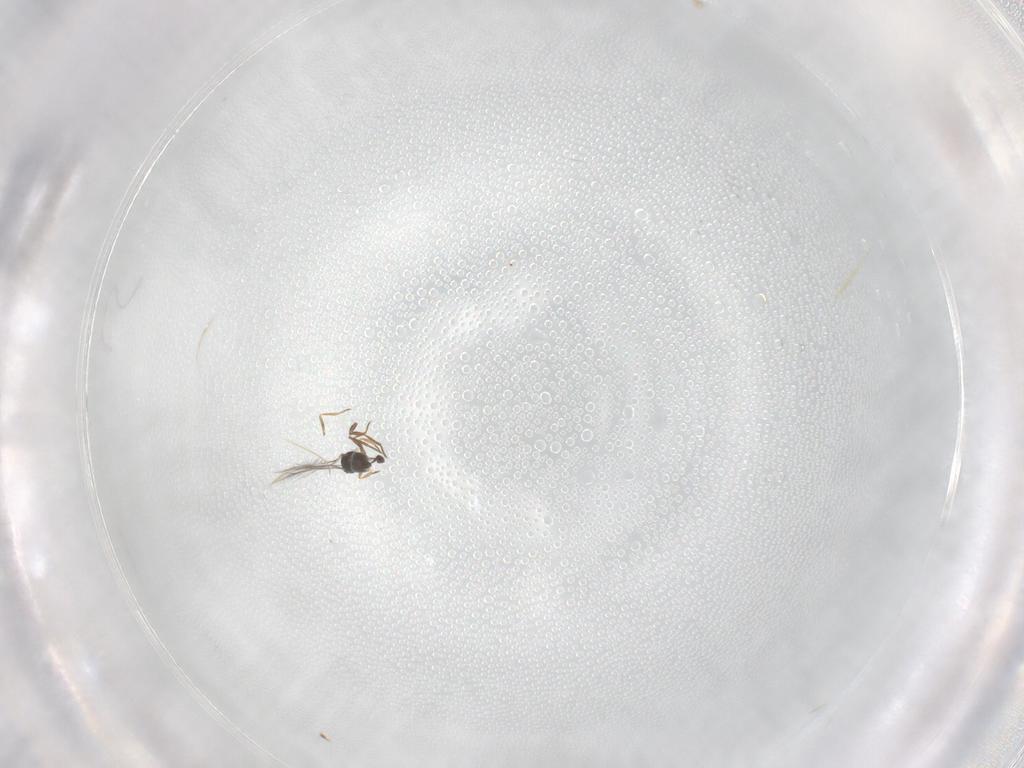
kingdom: Animalia
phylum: Arthropoda
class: Insecta
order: Diptera
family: Cecidomyiidae
